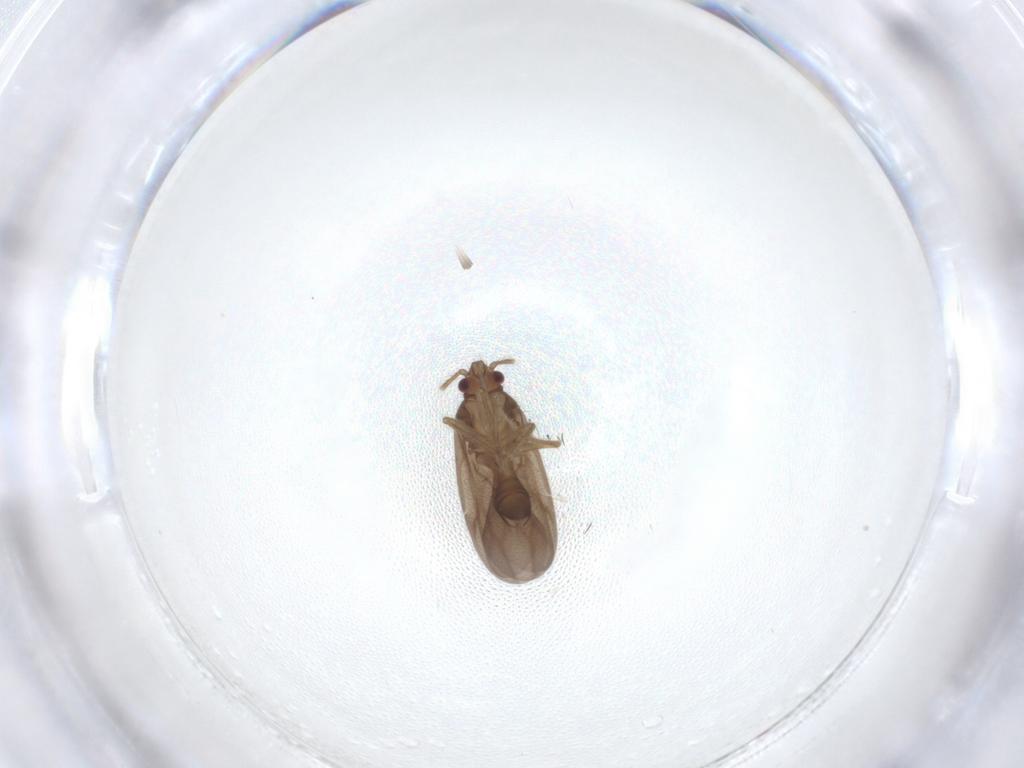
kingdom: Animalia
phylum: Arthropoda
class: Insecta
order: Hemiptera
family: Ceratocombidae
